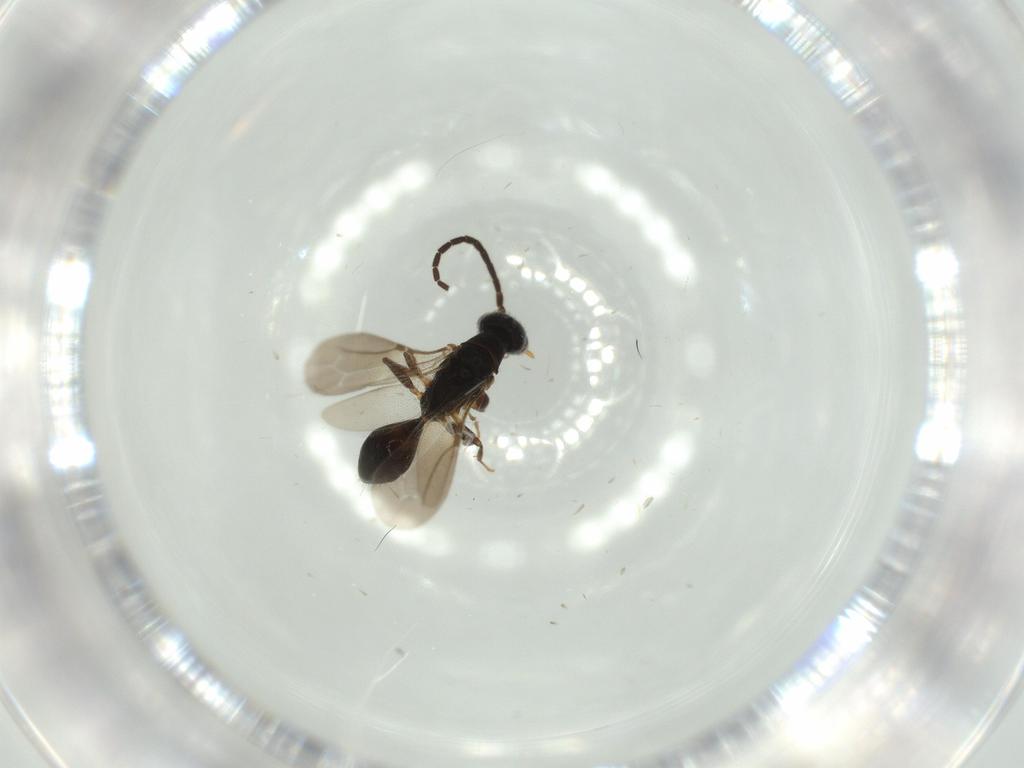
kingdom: Animalia
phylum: Arthropoda
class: Insecta
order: Hymenoptera
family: Bethylidae
